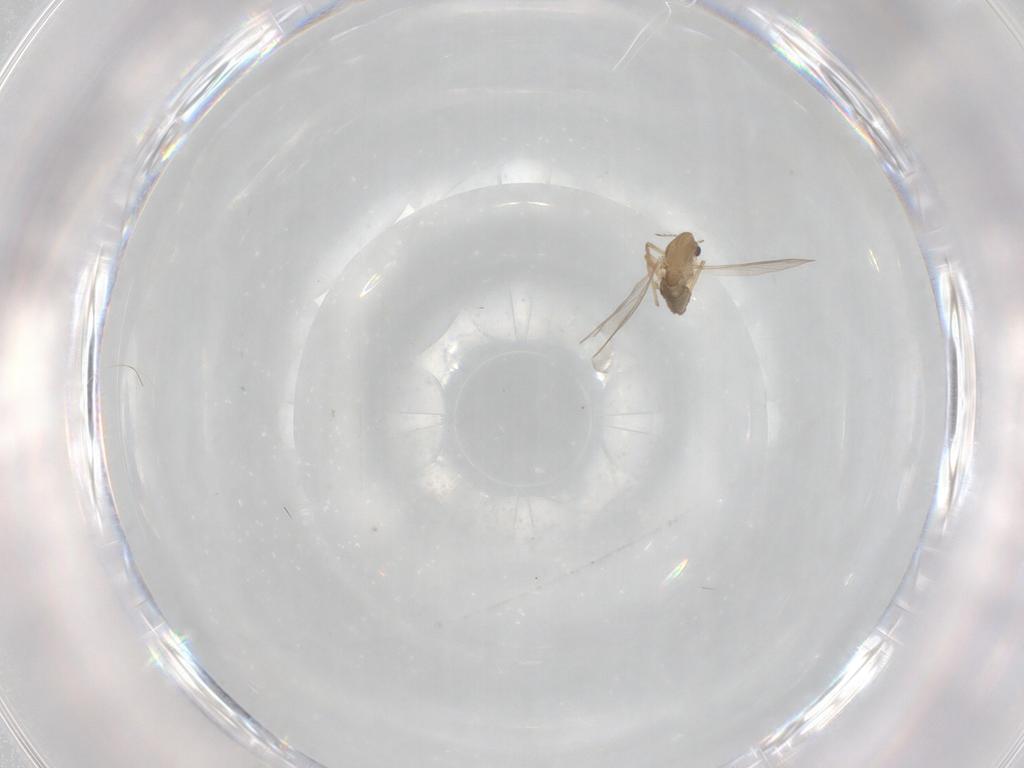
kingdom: Animalia
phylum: Arthropoda
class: Insecta
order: Diptera
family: Chironomidae
